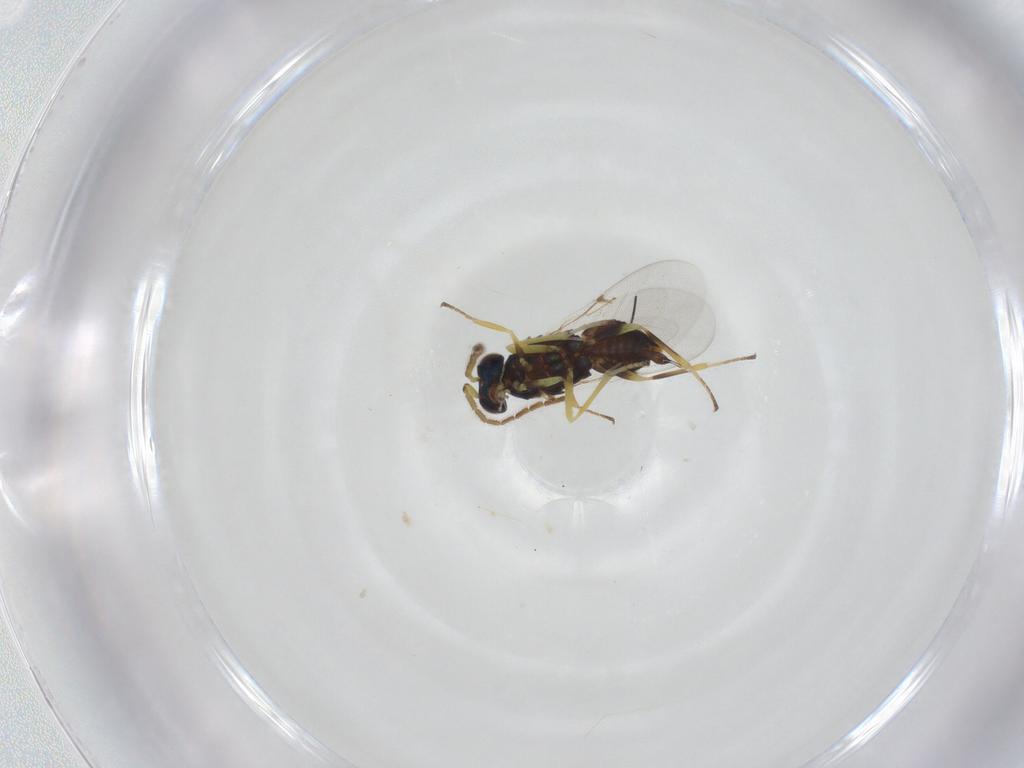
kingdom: Animalia
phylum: Arthropoda
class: Insecta
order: Hymenoptera
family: Encyrtidae
